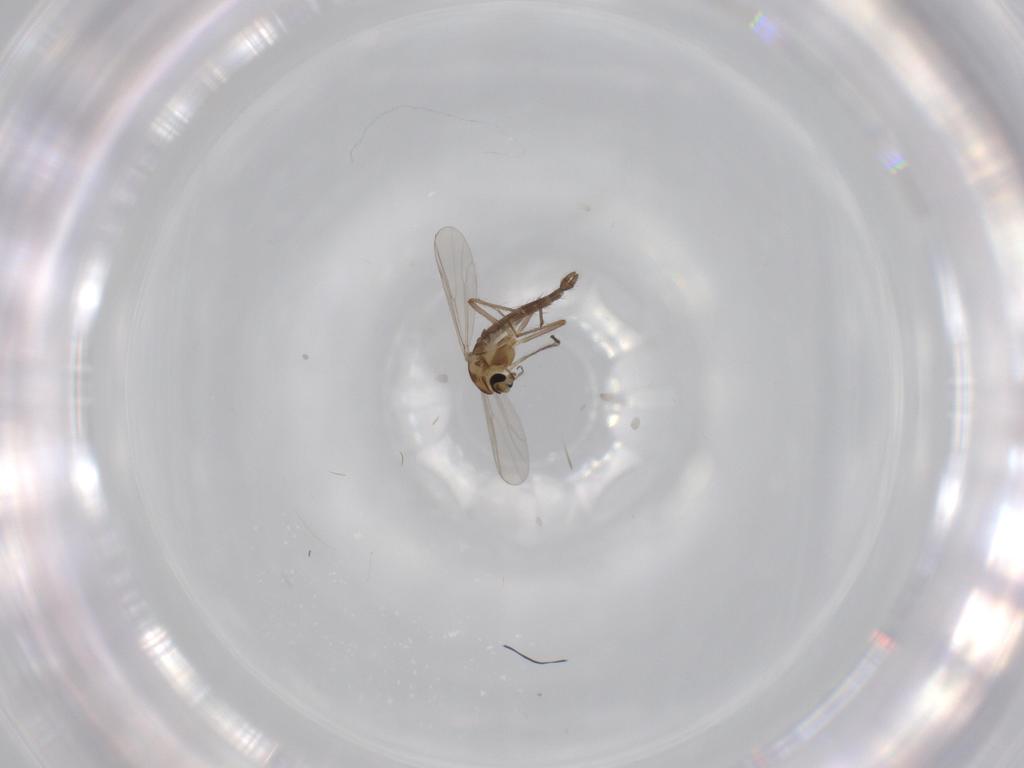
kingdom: Animalia
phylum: Arthropoda
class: Insecta
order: Diptera
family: Chironomidae
